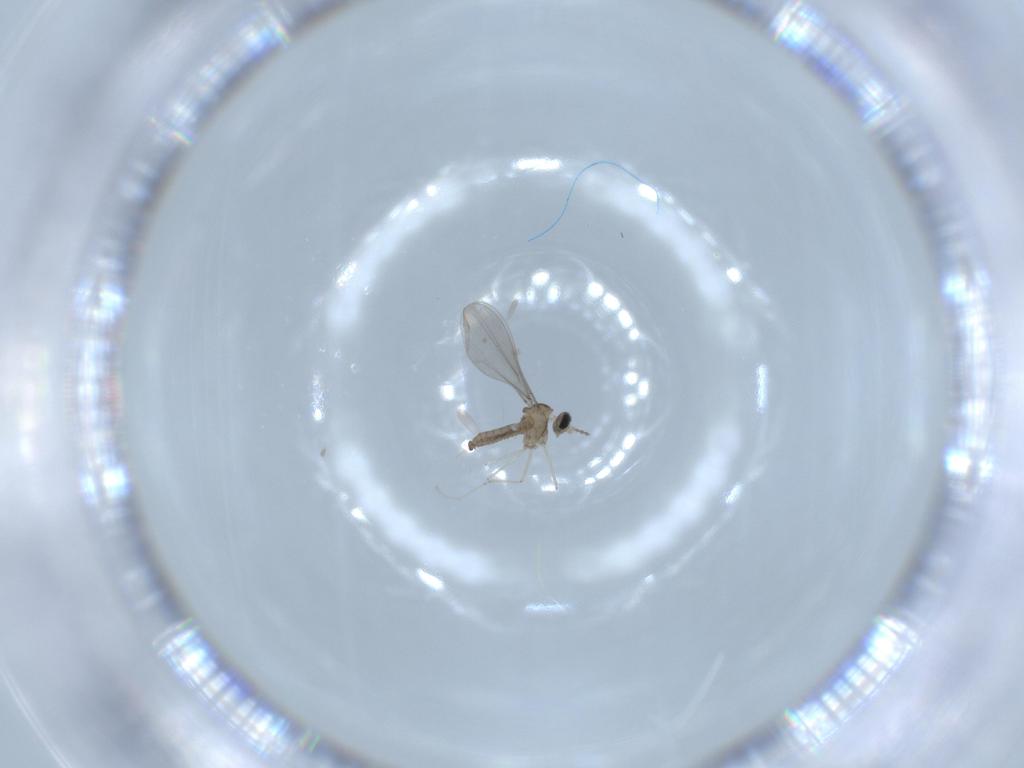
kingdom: Animalia
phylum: Arthropoda
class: Insecta
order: Diptera
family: Cecidomyiidae
